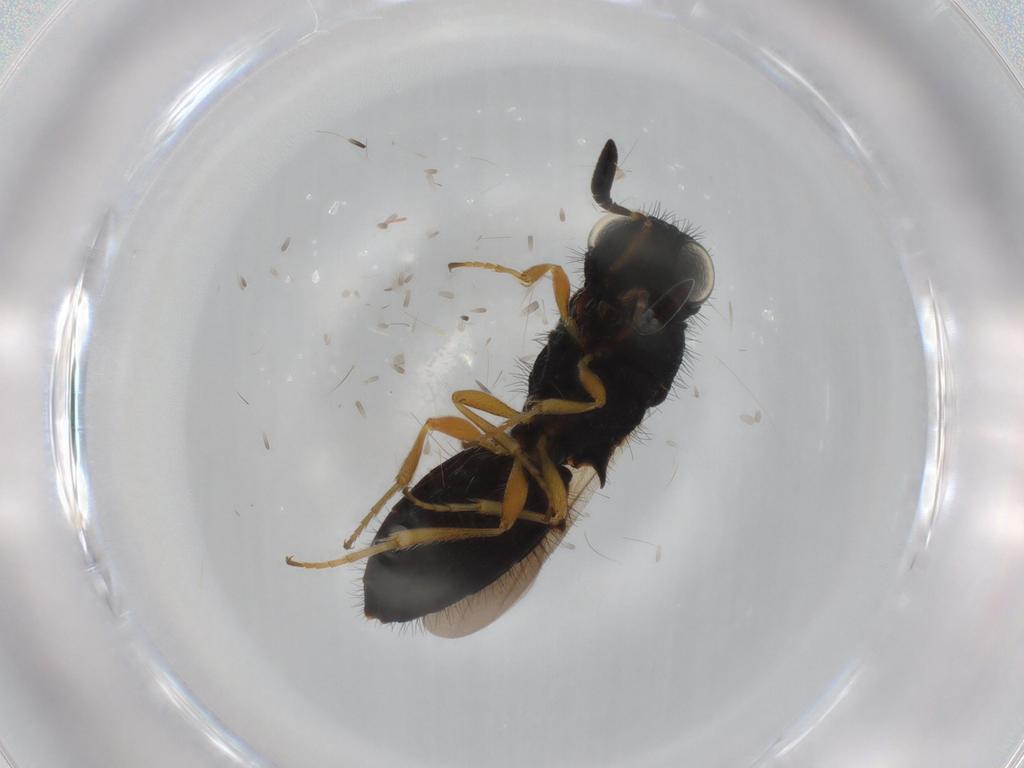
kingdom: Animalia
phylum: Arthropoda
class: Insecta
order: Hymenoptera
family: Scelionidae
